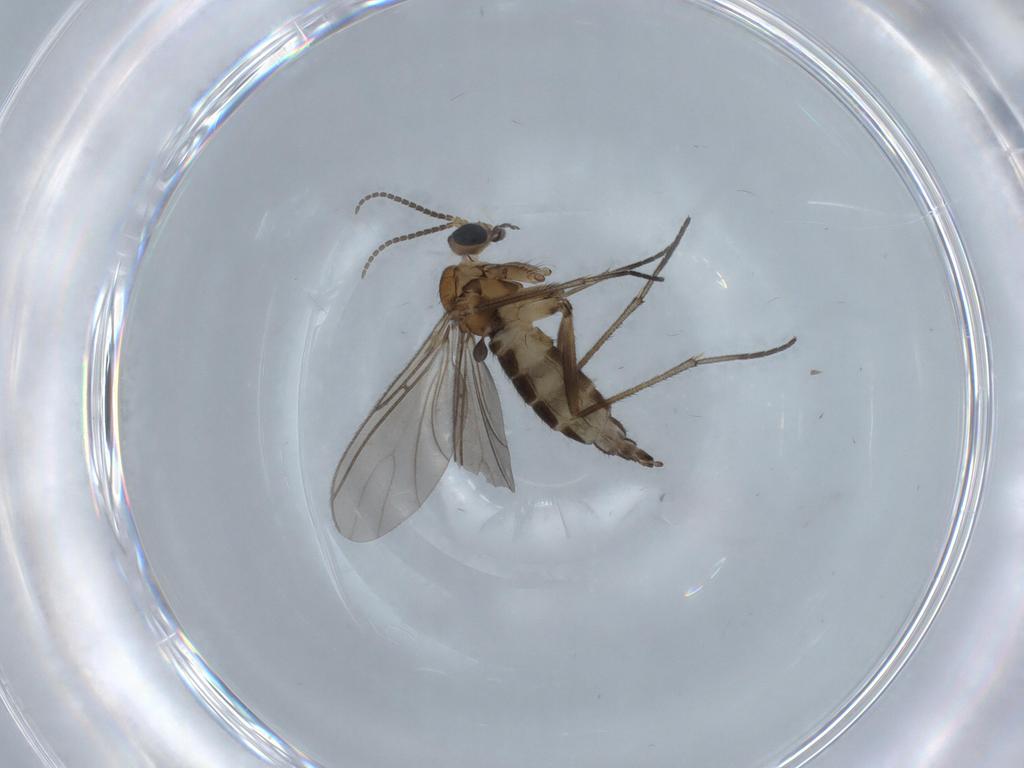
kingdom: Animalia
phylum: Arthropoda
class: Insecta
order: Diptera
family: Sciaridae
